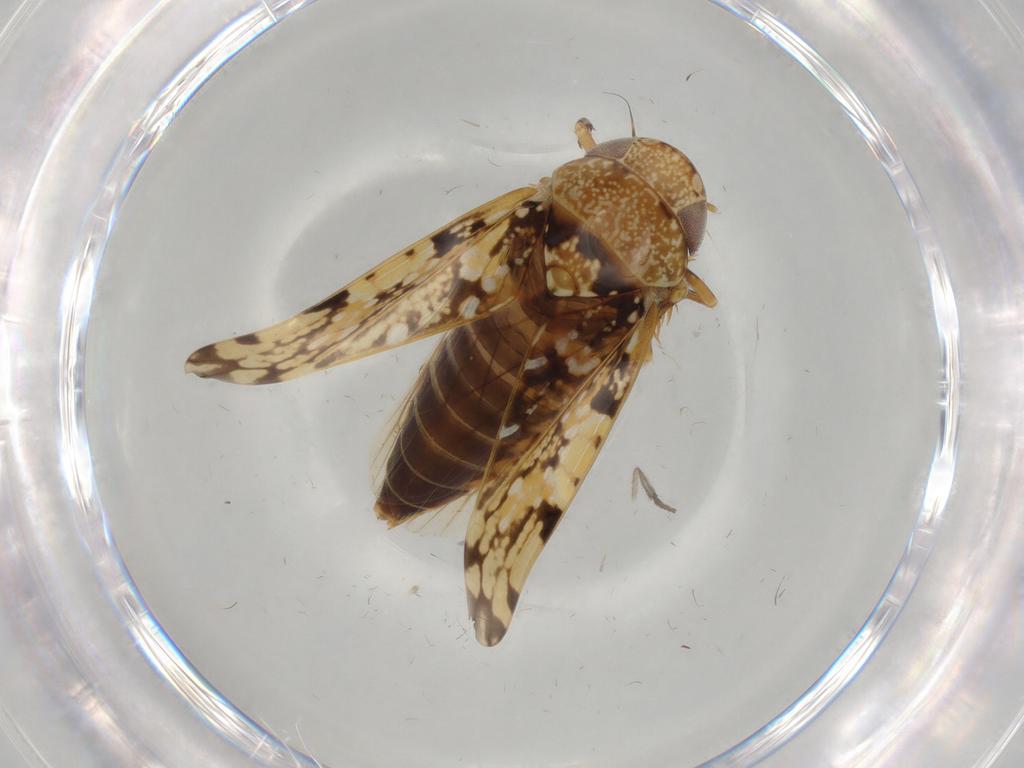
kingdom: Animalia
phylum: Arthropoda
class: Insecta
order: Hemiptera
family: Cicadellidae
